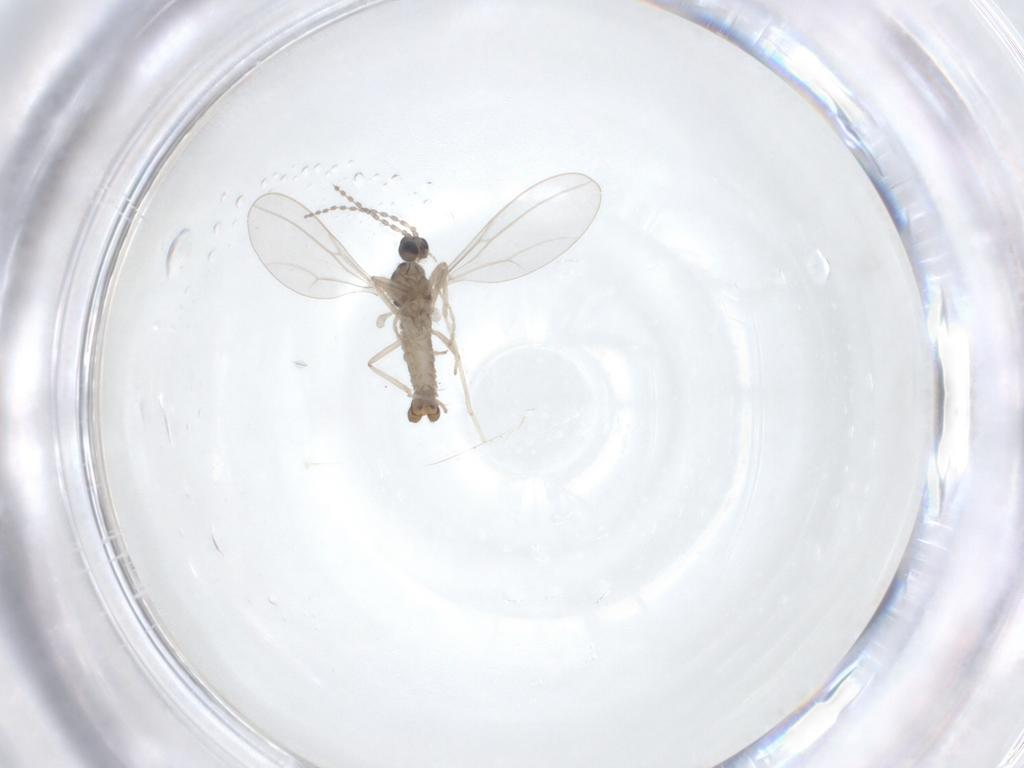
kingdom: Animalia
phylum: Arthropoda
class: Insecta
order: Diptera
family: Cecidomyiidae
